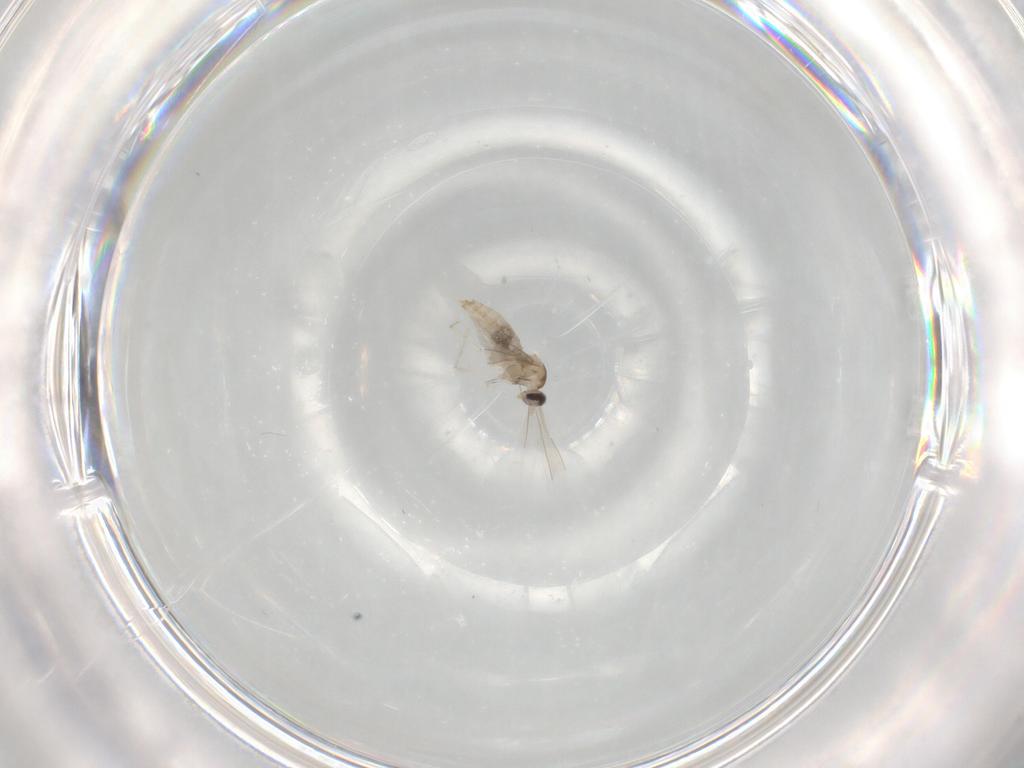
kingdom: Animalia
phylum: Arthropoda
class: Insecta
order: Diptera
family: Cecidomyiidae
